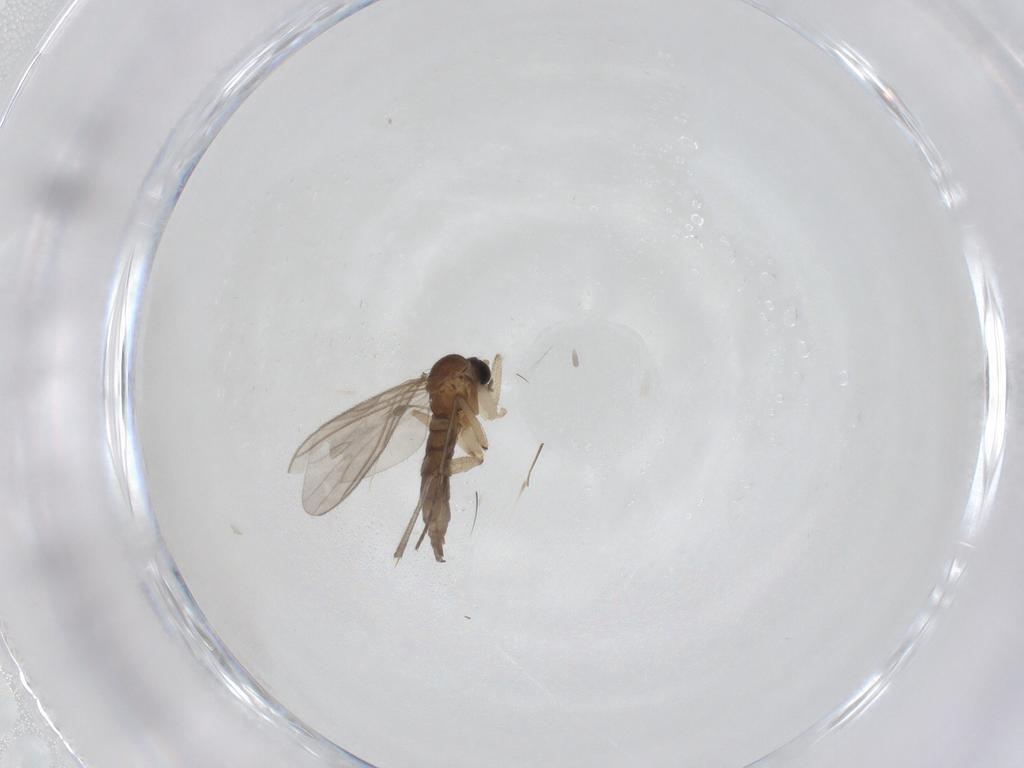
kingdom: Animalia
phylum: Arthropoda
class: Insecta
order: Diptera
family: Sciaridae
